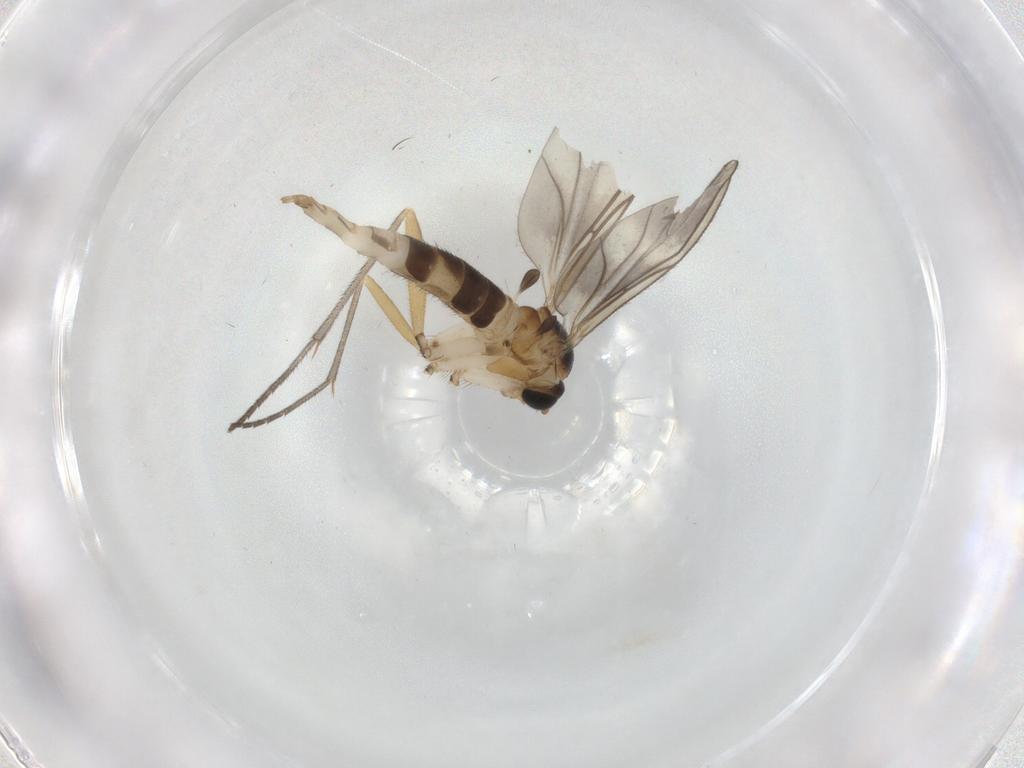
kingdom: Animalia
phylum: Arthropoda
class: Insecta
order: Diptera
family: Sciaridae
